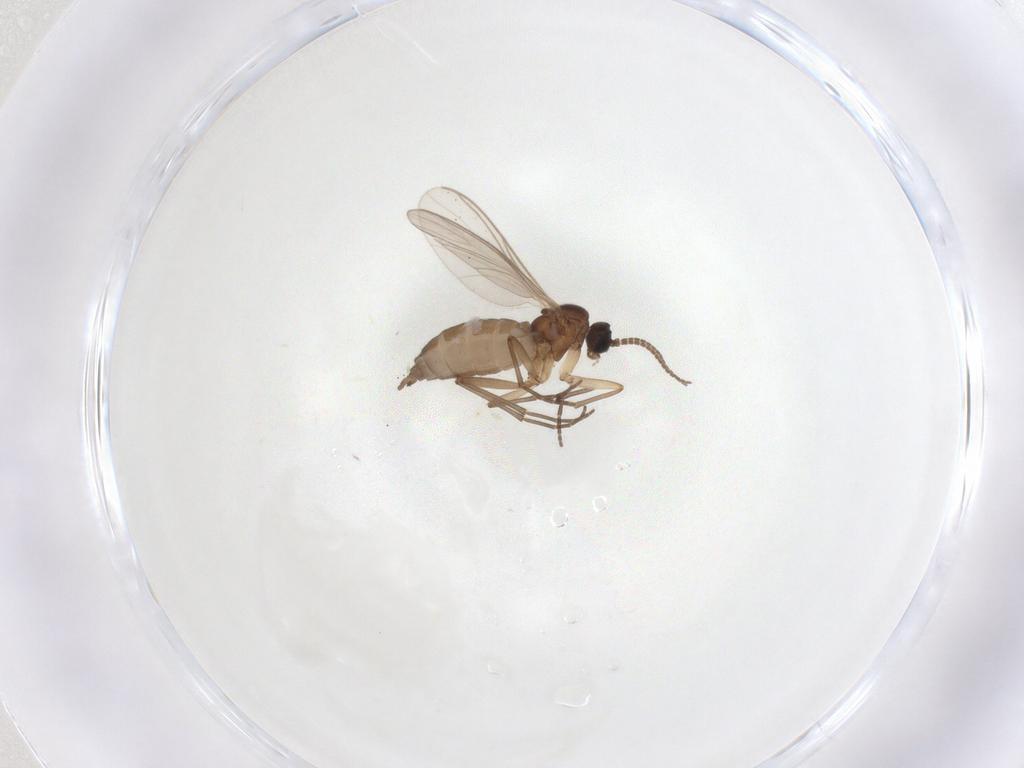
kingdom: Animalia
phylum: Arthropoda
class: Insecta
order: Diptera
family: Sciaridae
